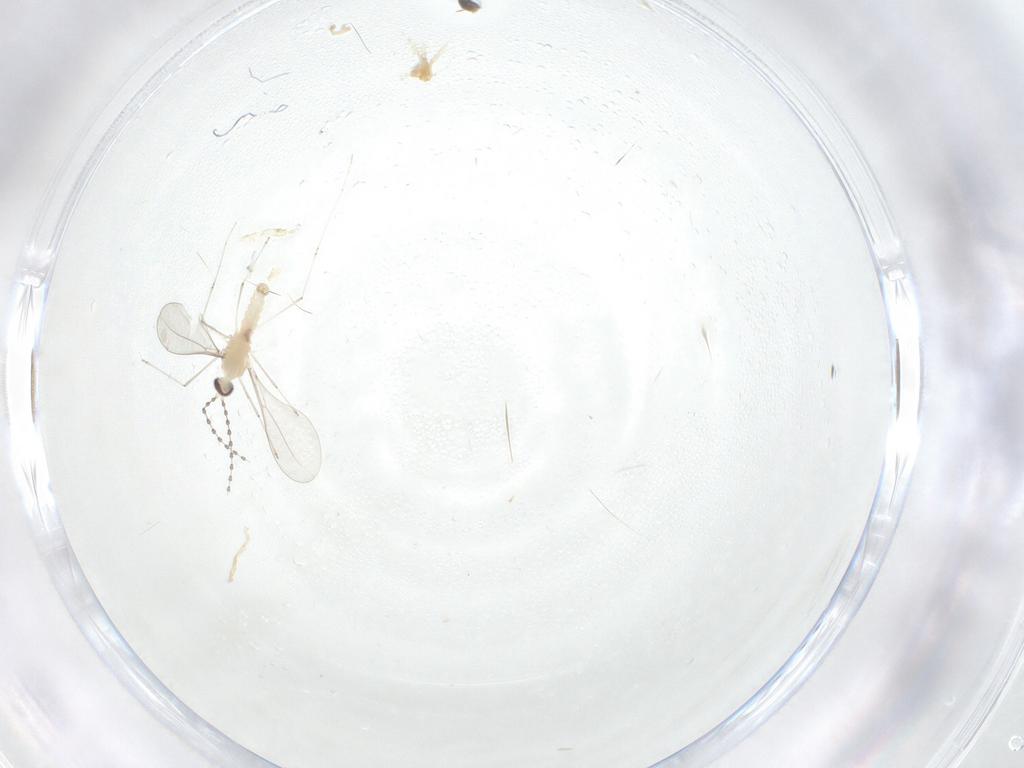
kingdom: Animalia
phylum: Arthropoda
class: Insecta
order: Diptera
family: Cecidomyiidae
